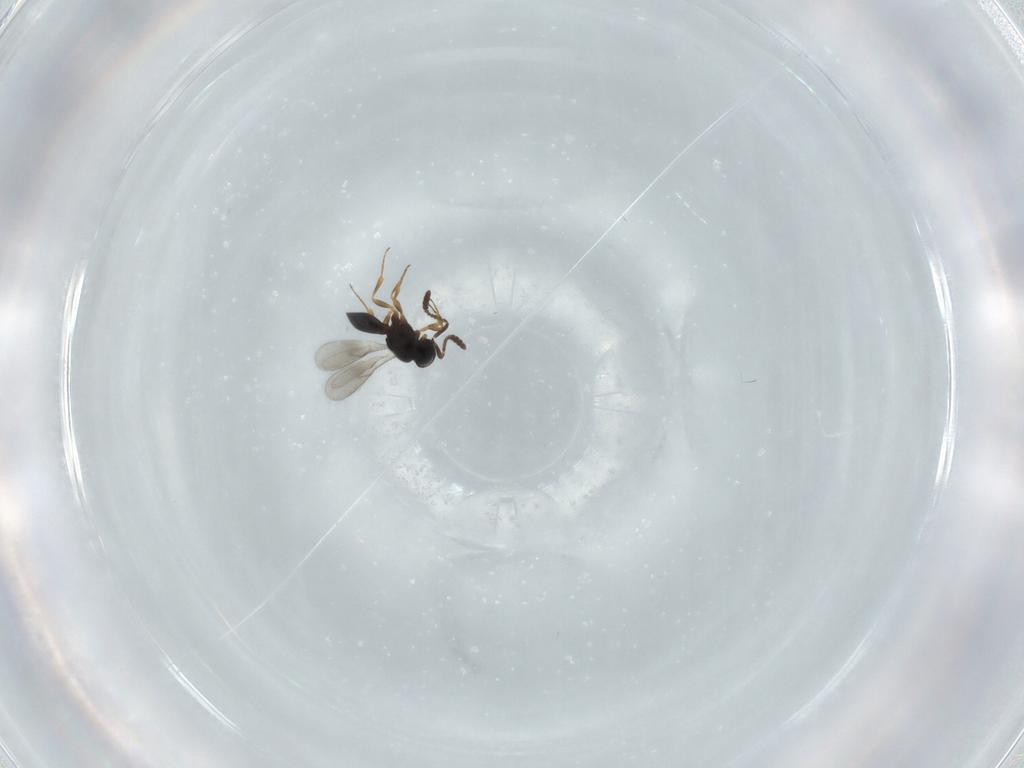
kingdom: Animalia
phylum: Arthropoda
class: Insecta
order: Hymenoptera
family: Scelionidae
